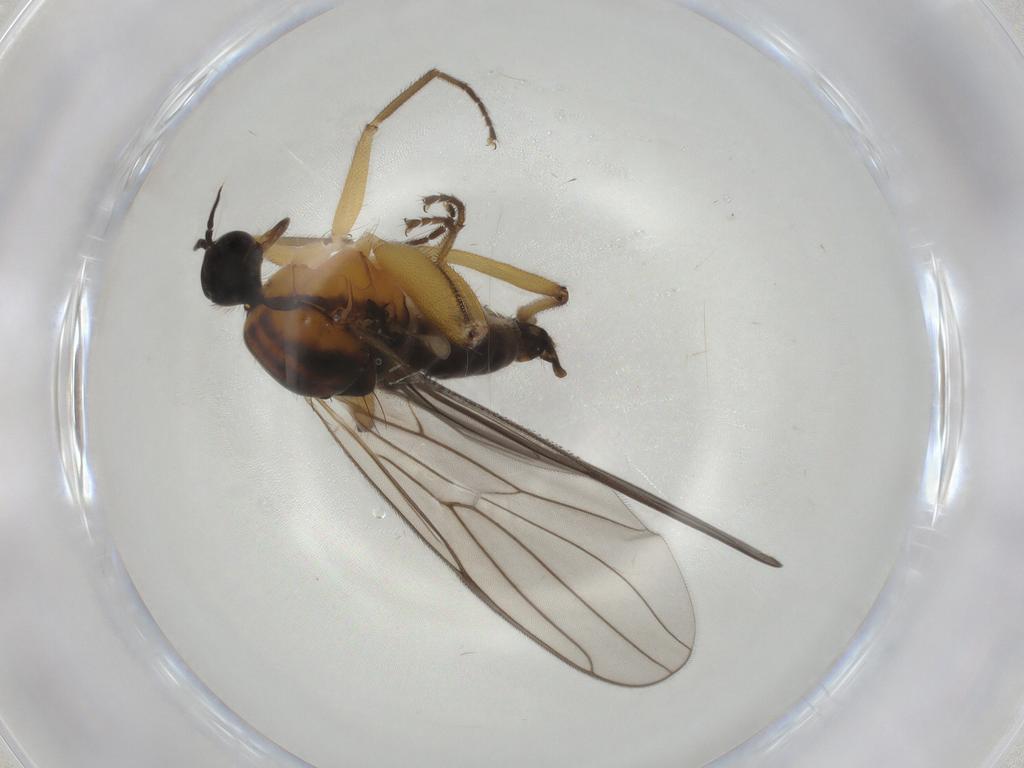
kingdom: Animalia
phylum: Arthropoda
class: Insecta
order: Diptera
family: Hybotidae
